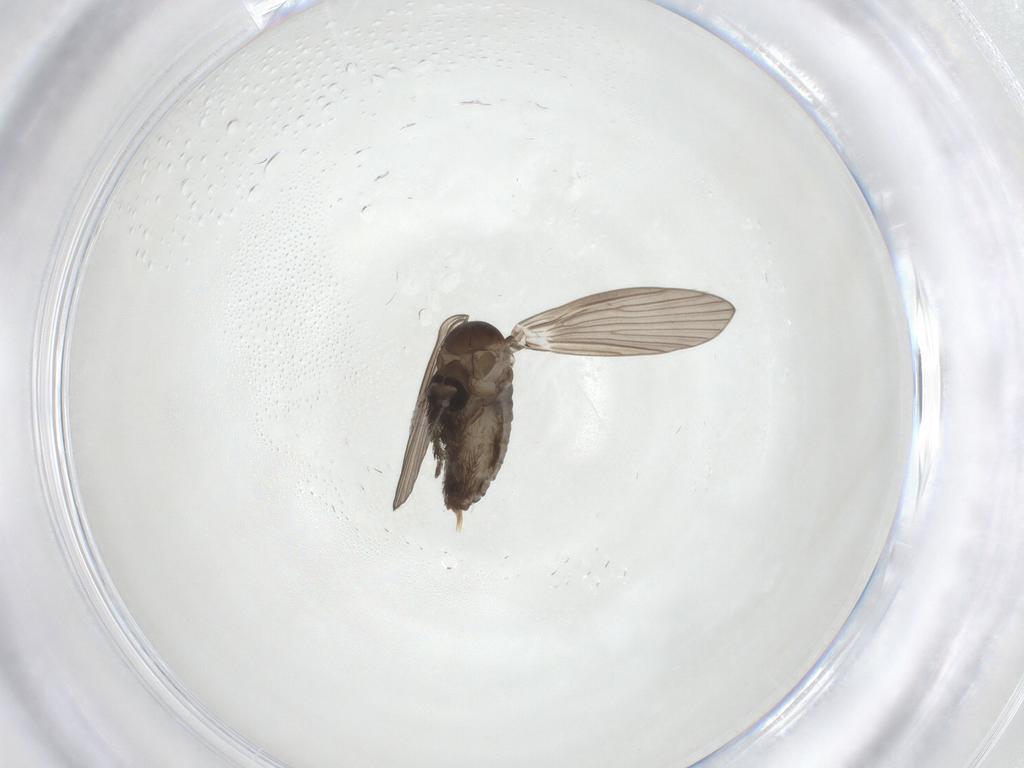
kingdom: Animalia
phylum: Arthropoda
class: Insecta
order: Diptera
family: Psychodidae
